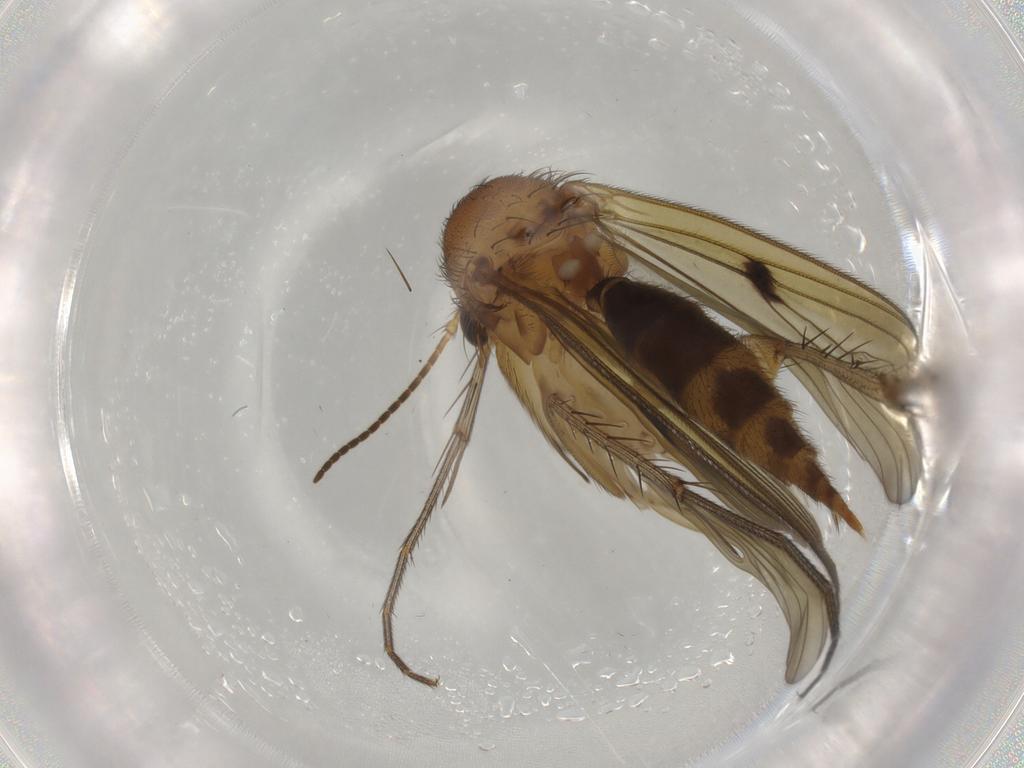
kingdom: Animalia
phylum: Arthropoda
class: Insecta
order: Diptera
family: Mycetophilidae
